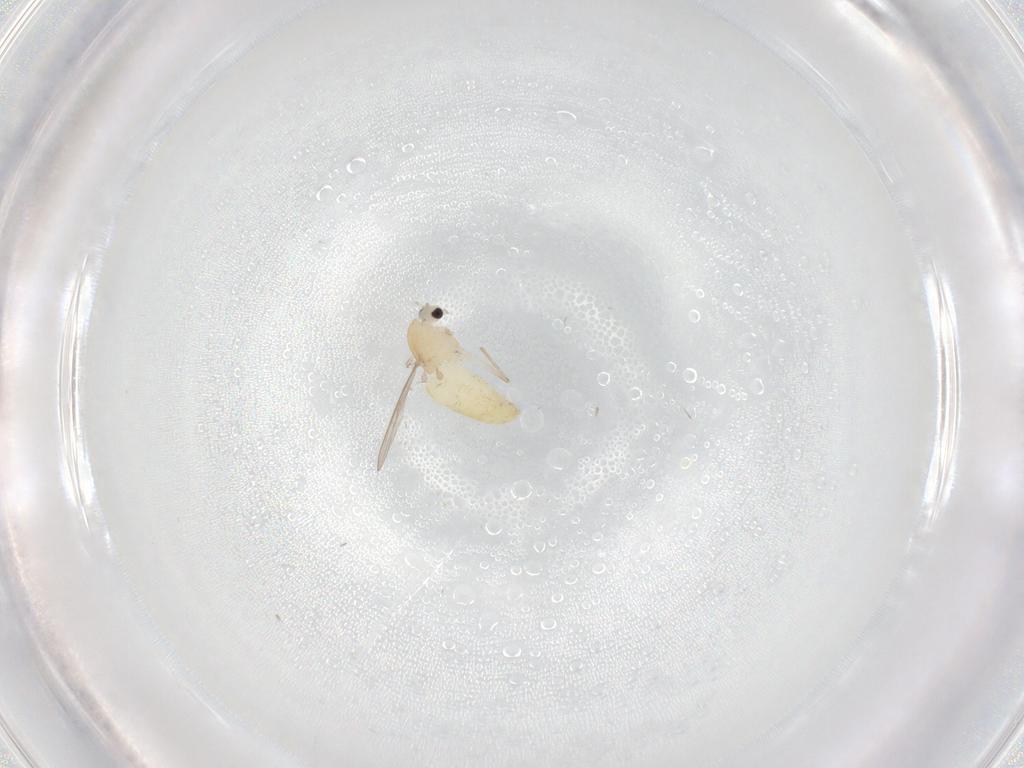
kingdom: Animalia
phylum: Arthropoda
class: Insecta
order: Diptera
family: Chironomidae
